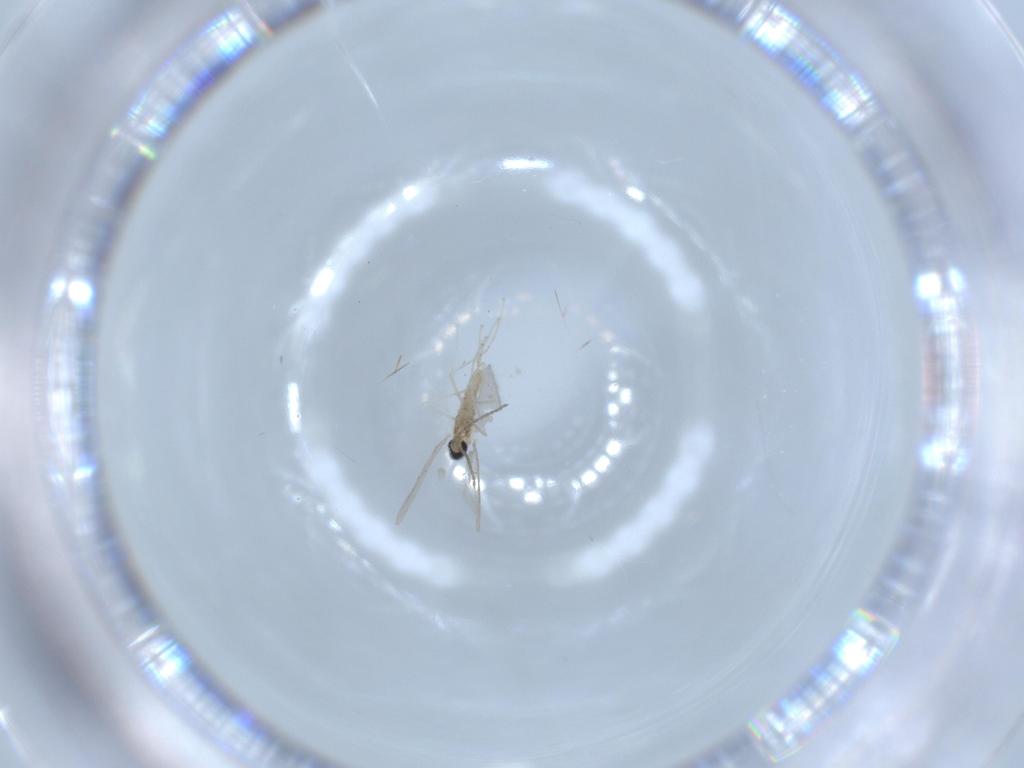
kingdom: Animalia
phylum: Arthropoda
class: Insecta
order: Diptera
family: Cecidomyiidae
